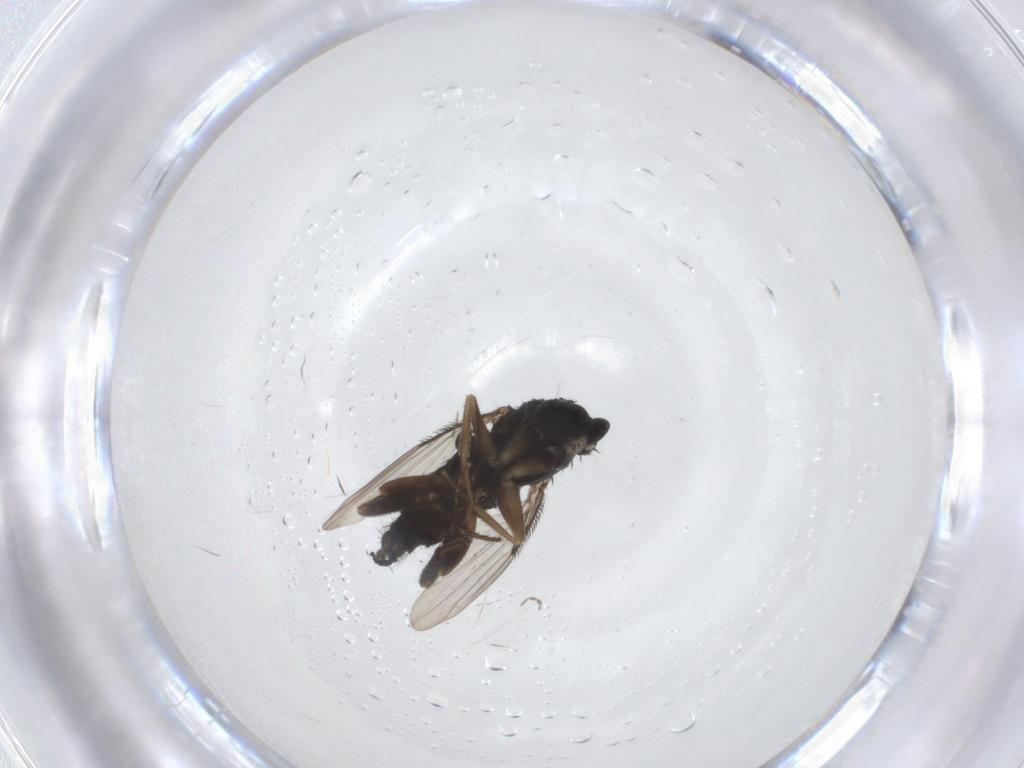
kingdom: Animalia
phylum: Arthropoda
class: Insecta
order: Diptera
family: Phoridae
